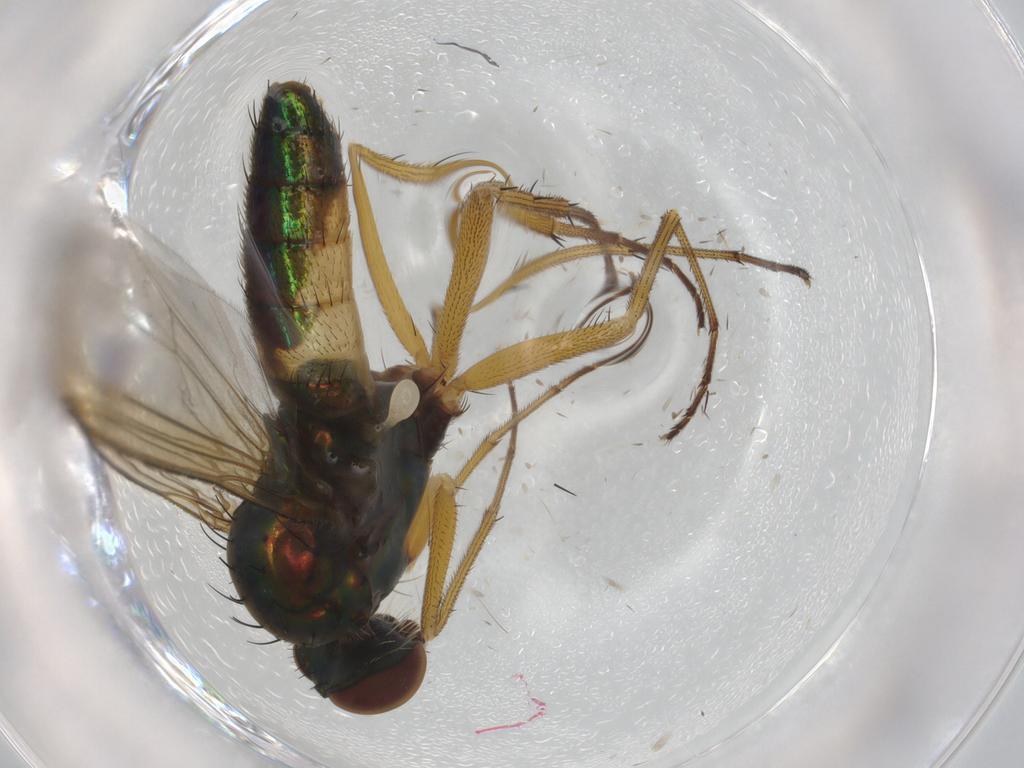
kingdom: Animalia
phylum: Arthropoda
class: Insecta
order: Diptera
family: Ceratopogonidae
